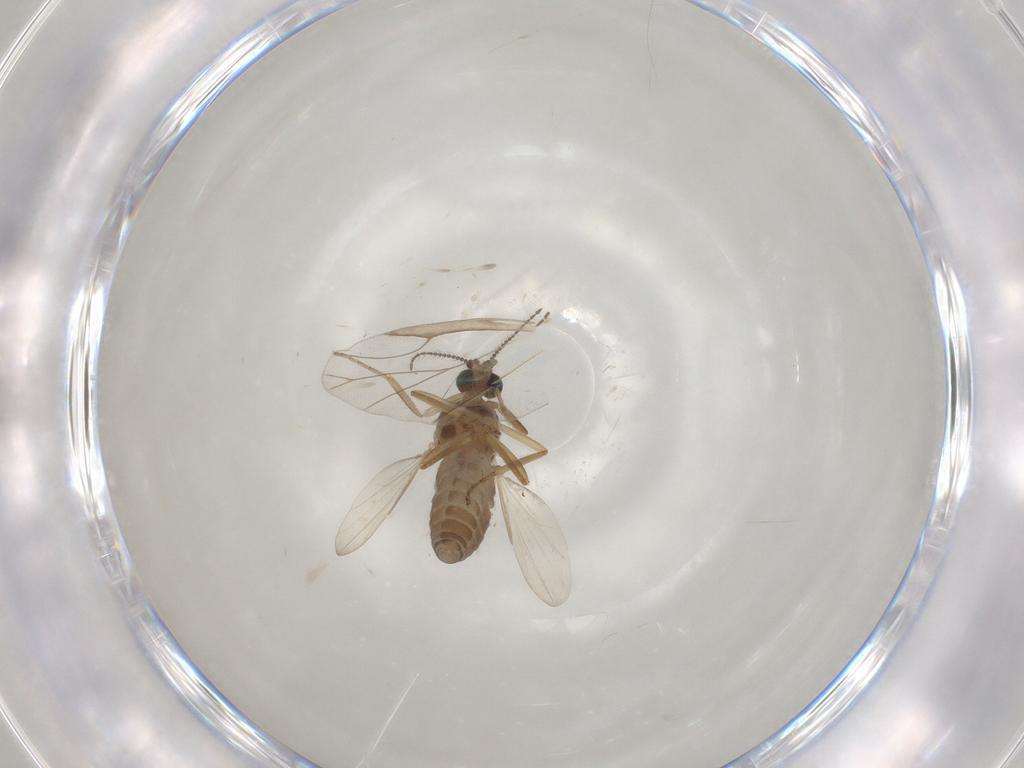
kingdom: Animalia
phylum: Arthropoda
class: Insecta
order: Diptera
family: Ceratopogonidae
